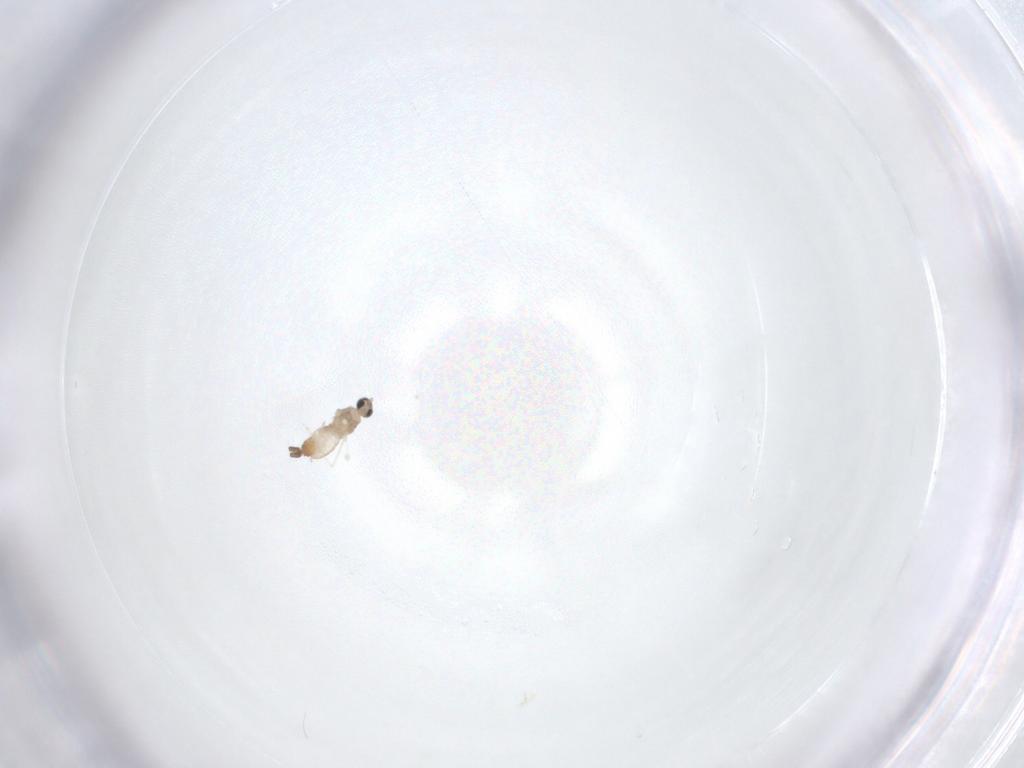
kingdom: Animalia
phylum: Arthropoda
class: Insecta
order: Diptera
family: Cecidomyiidae
